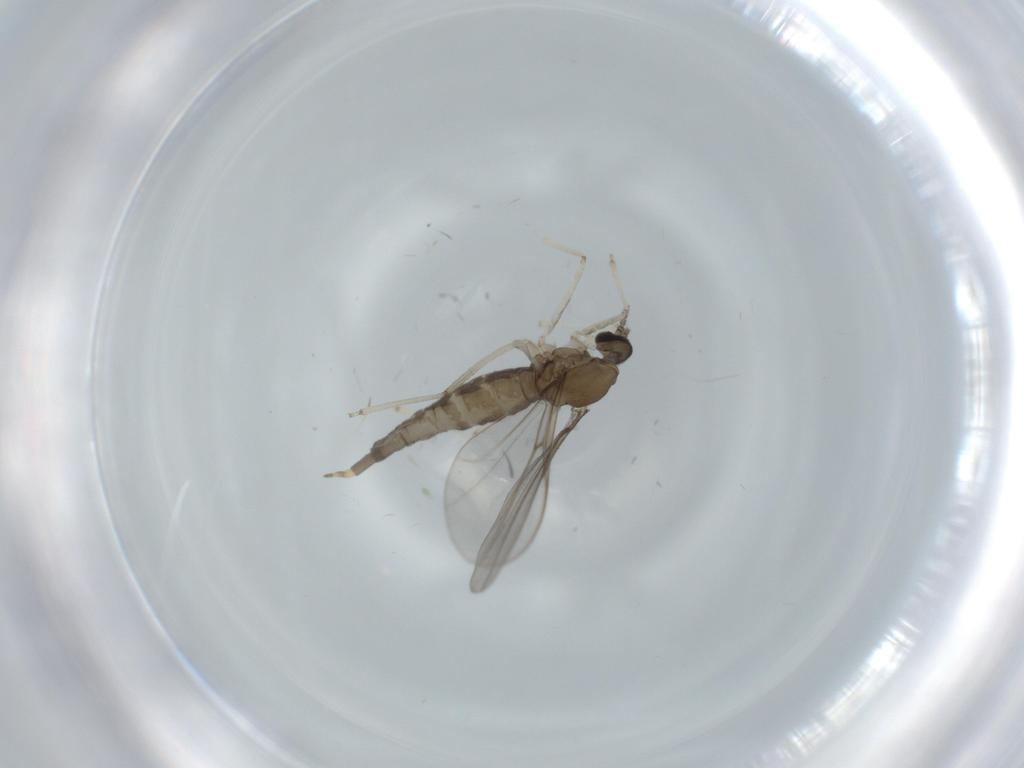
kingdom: Animalia
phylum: Arthropoda
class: Insecta
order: Diptera
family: Cecidomyiidae
